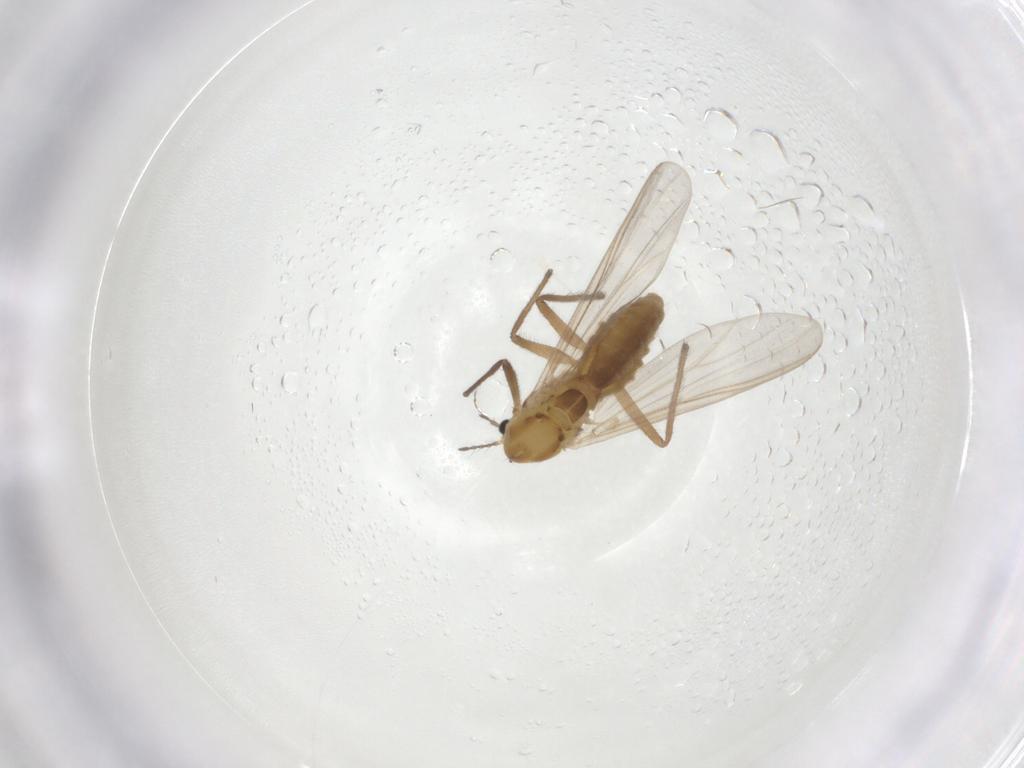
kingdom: Animalia
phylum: Arthropoda
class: Insecta
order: Diptera
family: Chironomidae
